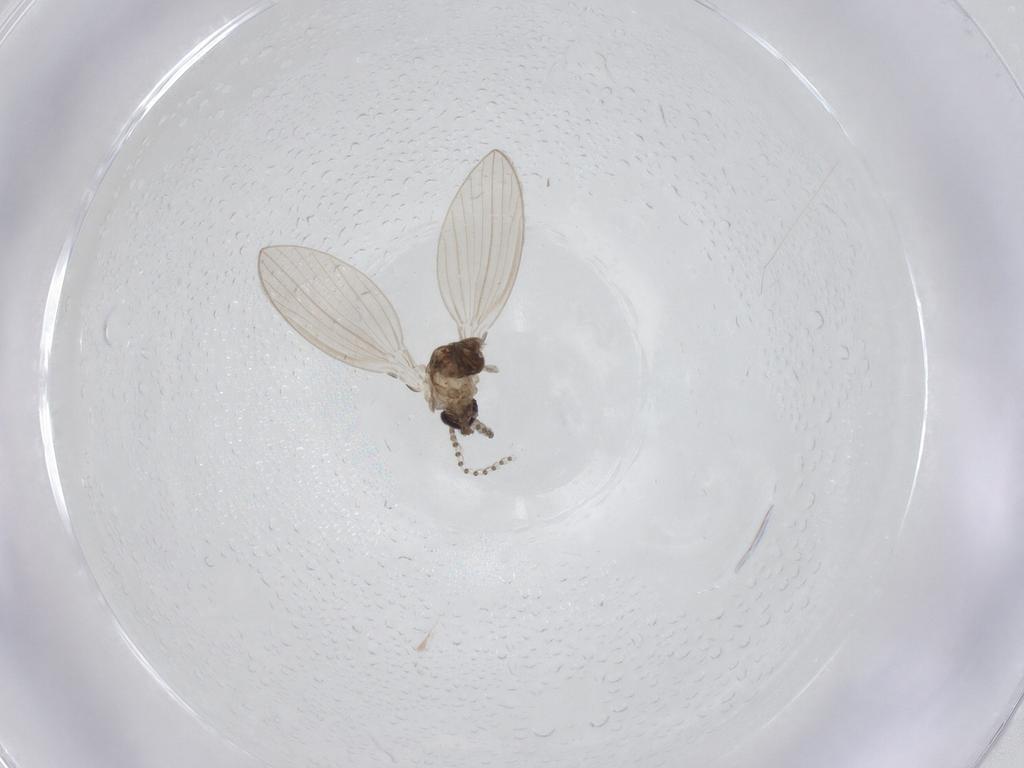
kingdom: Animalia
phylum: Arthropoda
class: Insecta
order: Diptera
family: Psychodidae
